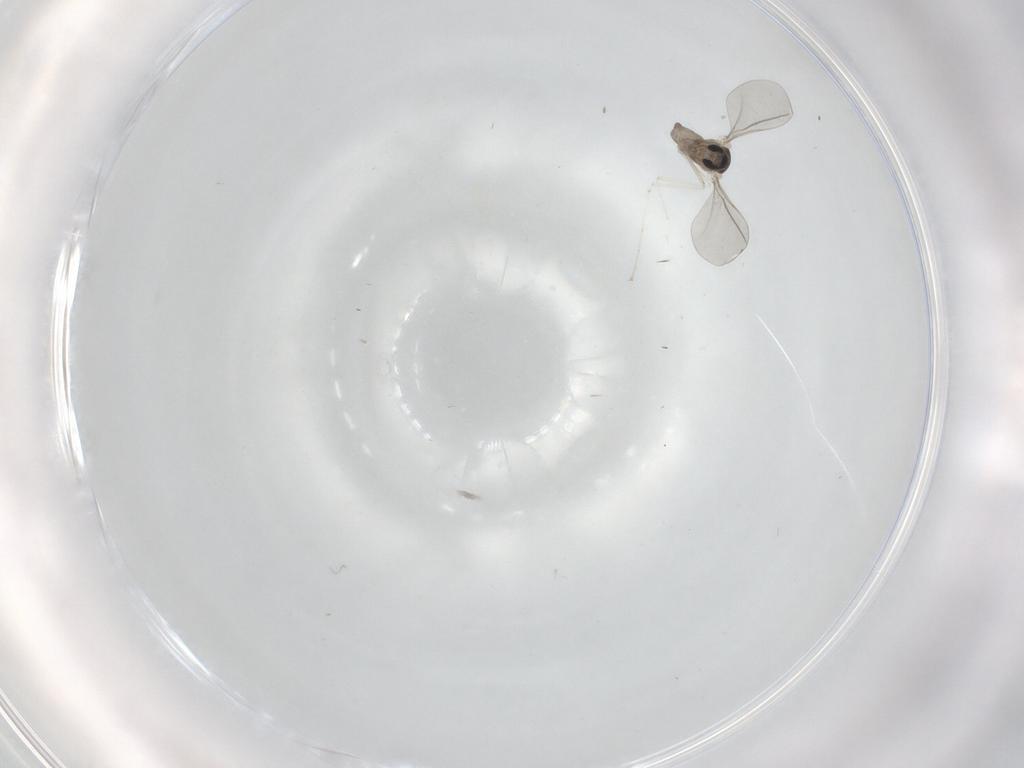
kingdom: Animalia
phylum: Arthropoda
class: Insecta
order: Diptera
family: Cecidomyiidae
